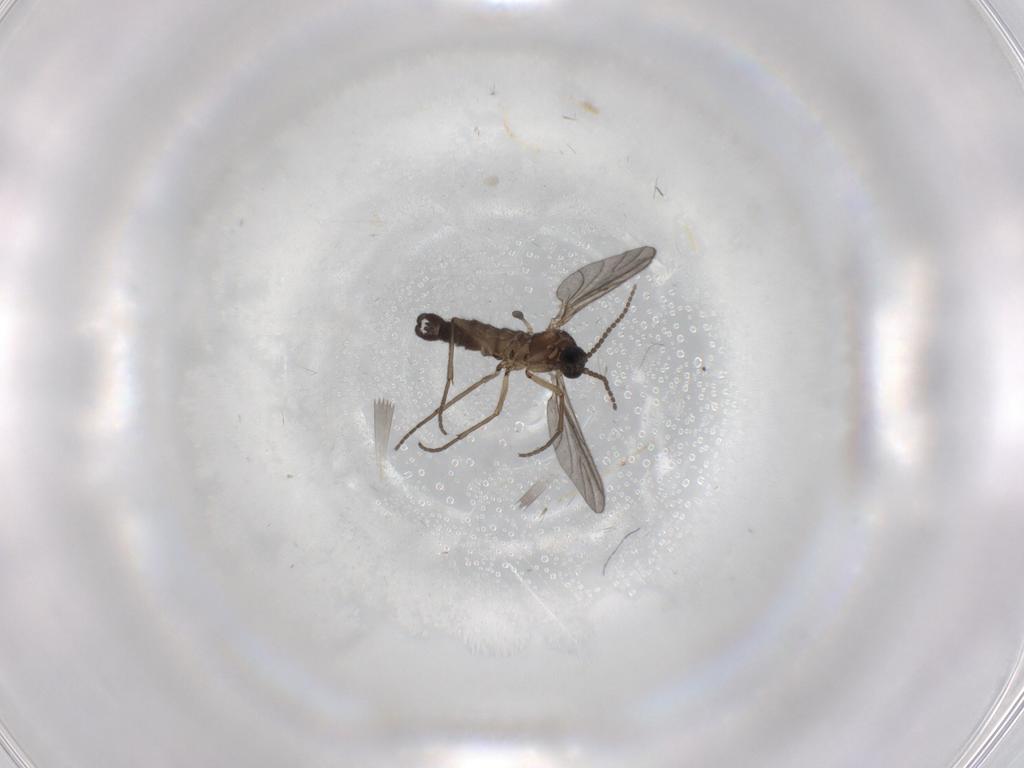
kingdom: Animalia
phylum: Arthropoda
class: Insecta
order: Diptera
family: Sciaridae
